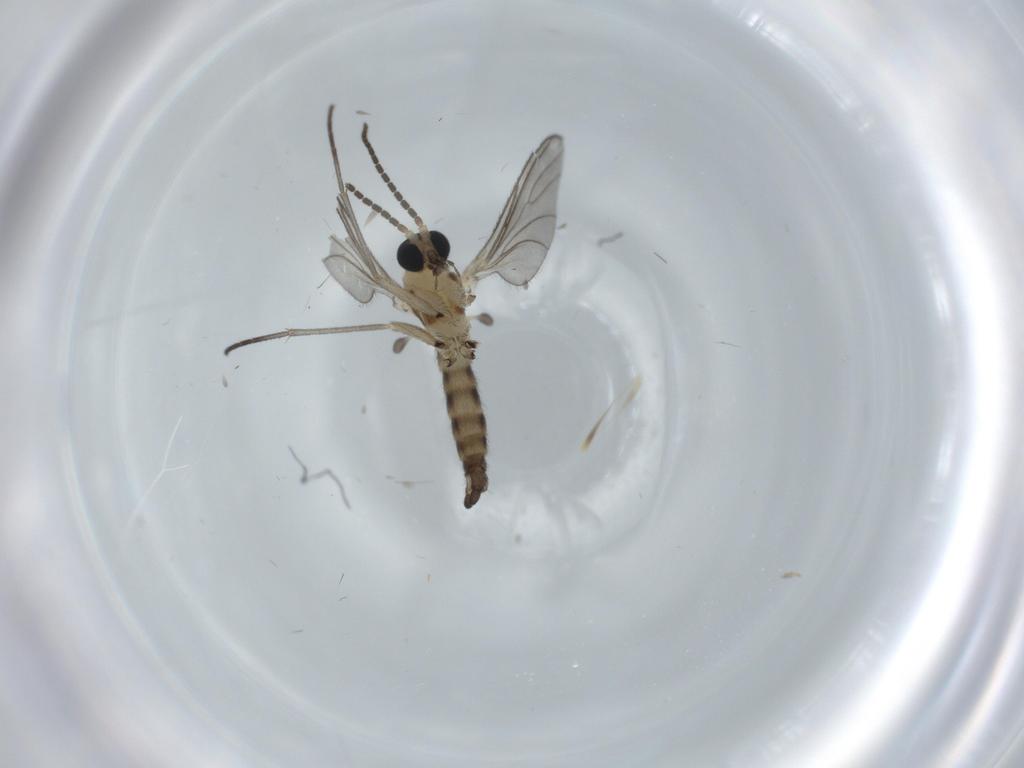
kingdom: Animalia
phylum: Arthropoda
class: Insecta
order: Diptera
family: Sciaridae
